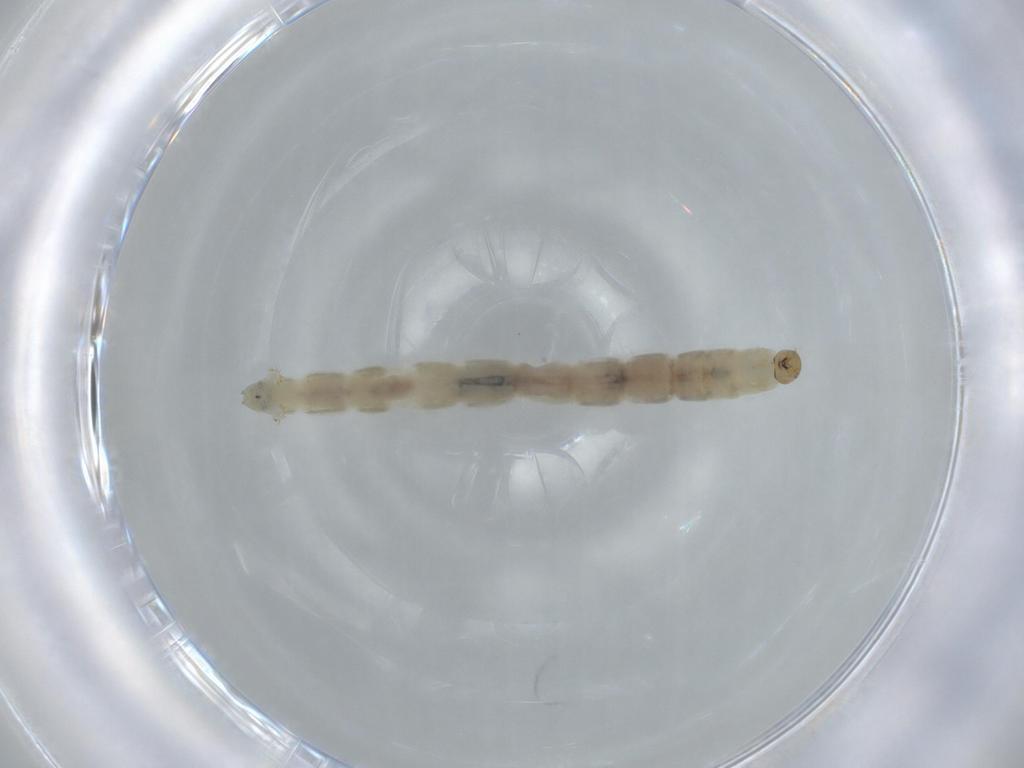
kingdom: Animalia
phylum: Arthropoda
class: Insecta
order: Diptera
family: Chironomidae
